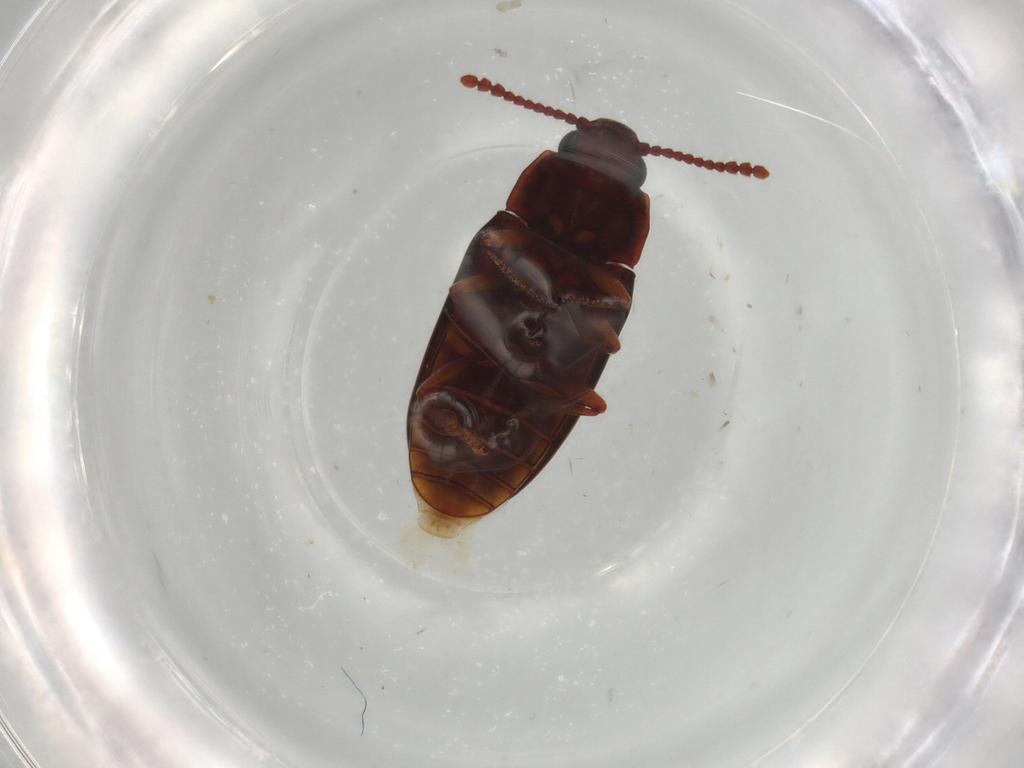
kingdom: Animalia
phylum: Arthropoda
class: Insecta
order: Coleoptera
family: Erotylidae
